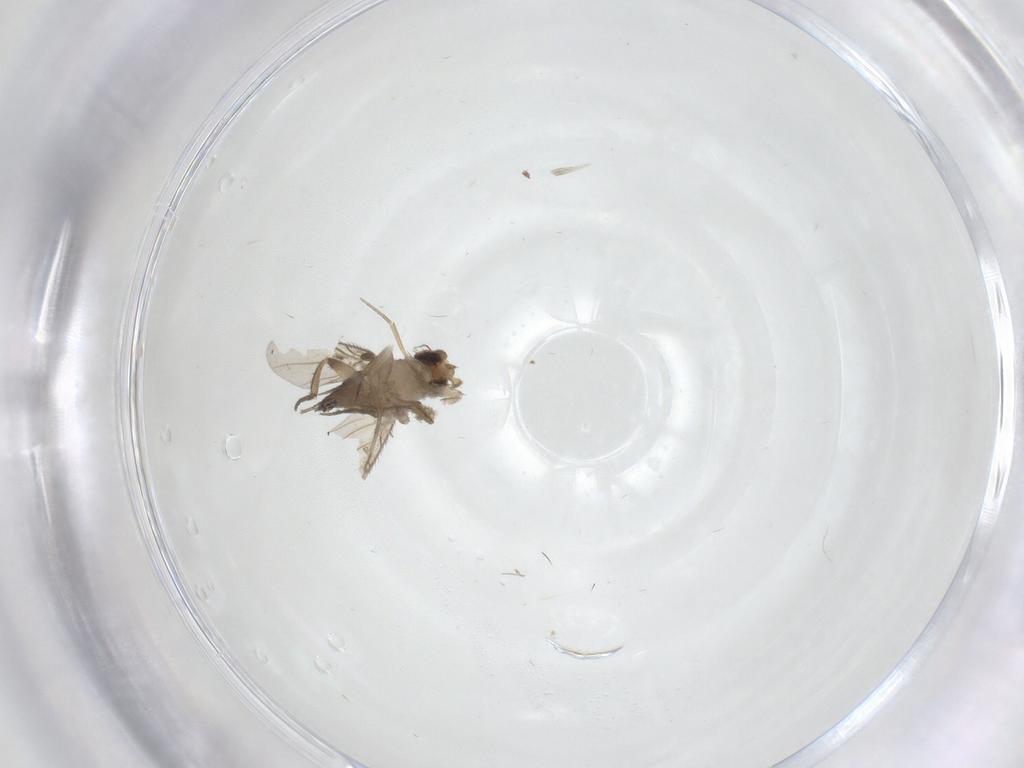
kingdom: Animalia
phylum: Arthropoda
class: Insecta
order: Diptera
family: Phoridae
